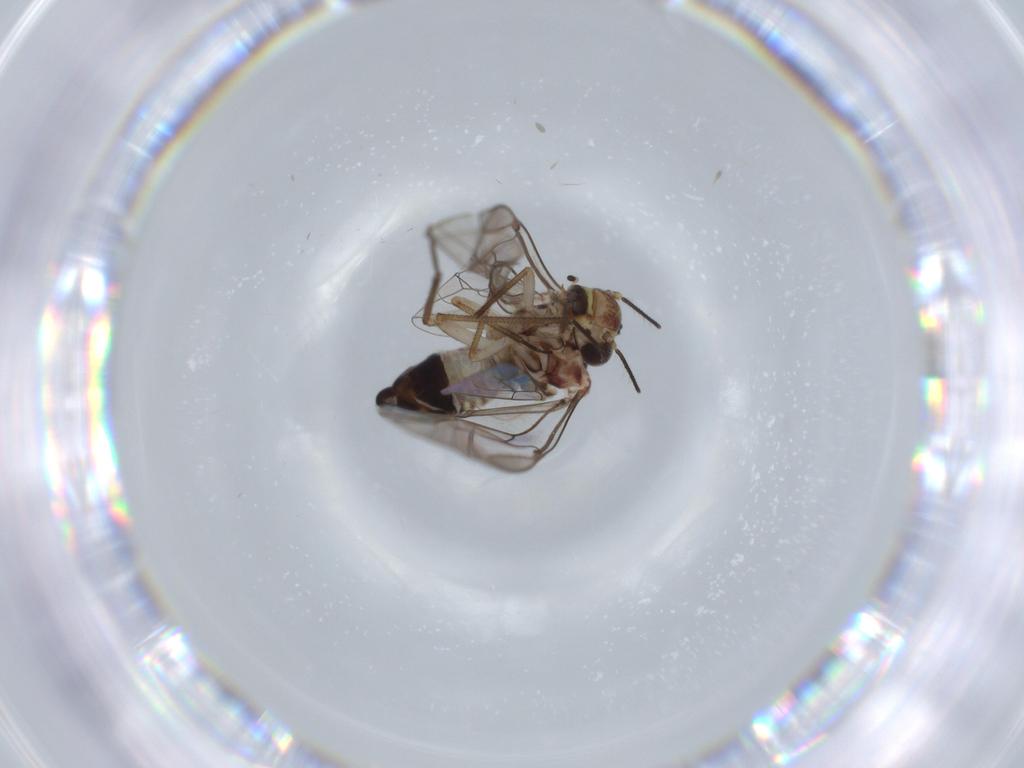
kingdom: Animalia
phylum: Arthropoda
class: Insecta
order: Psocodea
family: Psocidae
